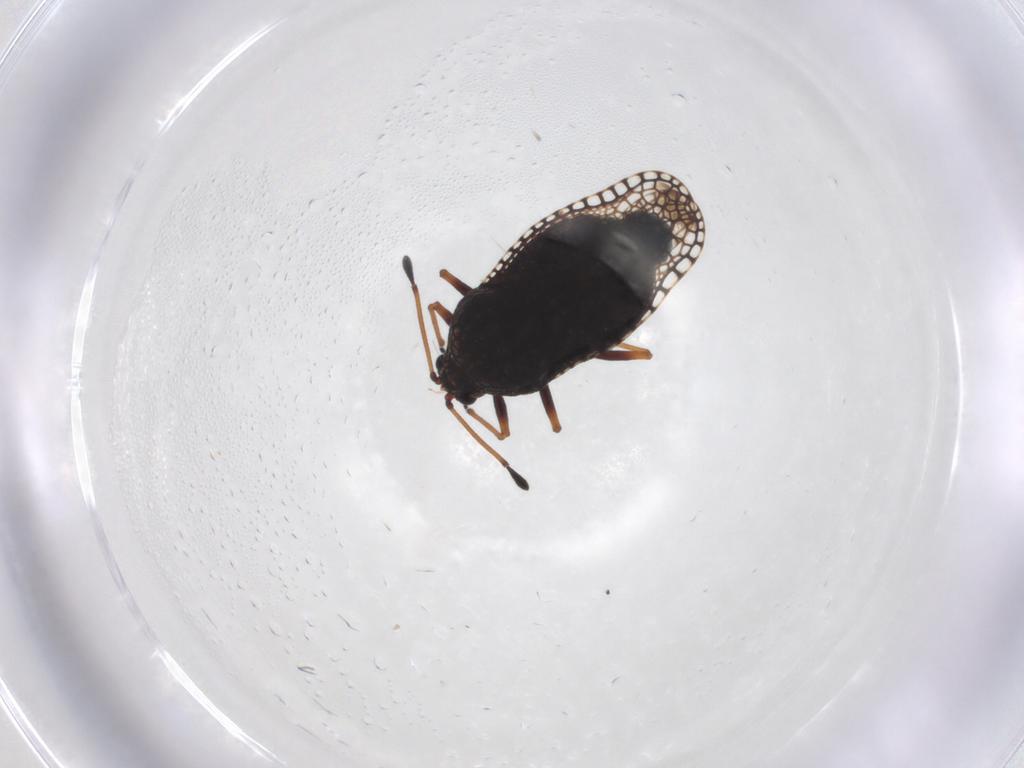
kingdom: Animalia
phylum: Arthropoda
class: Insecta
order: Hemiptera
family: Tingidae
